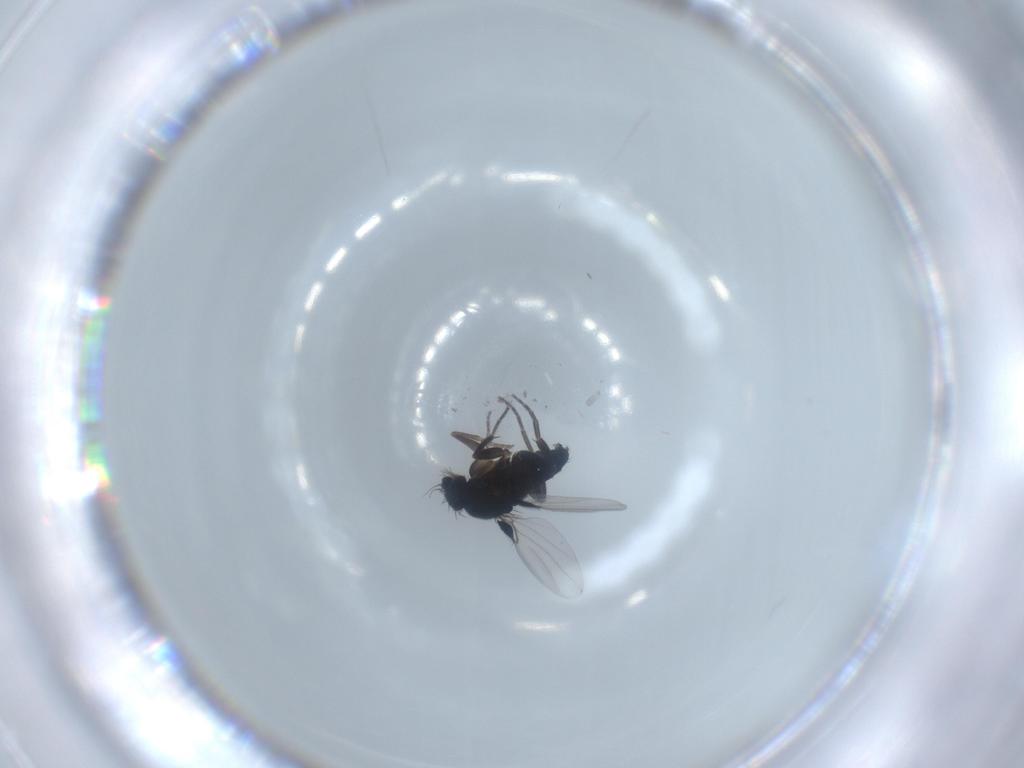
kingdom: Animalia
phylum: Arthropoda
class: Insecta
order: Diptera
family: Phoridae
